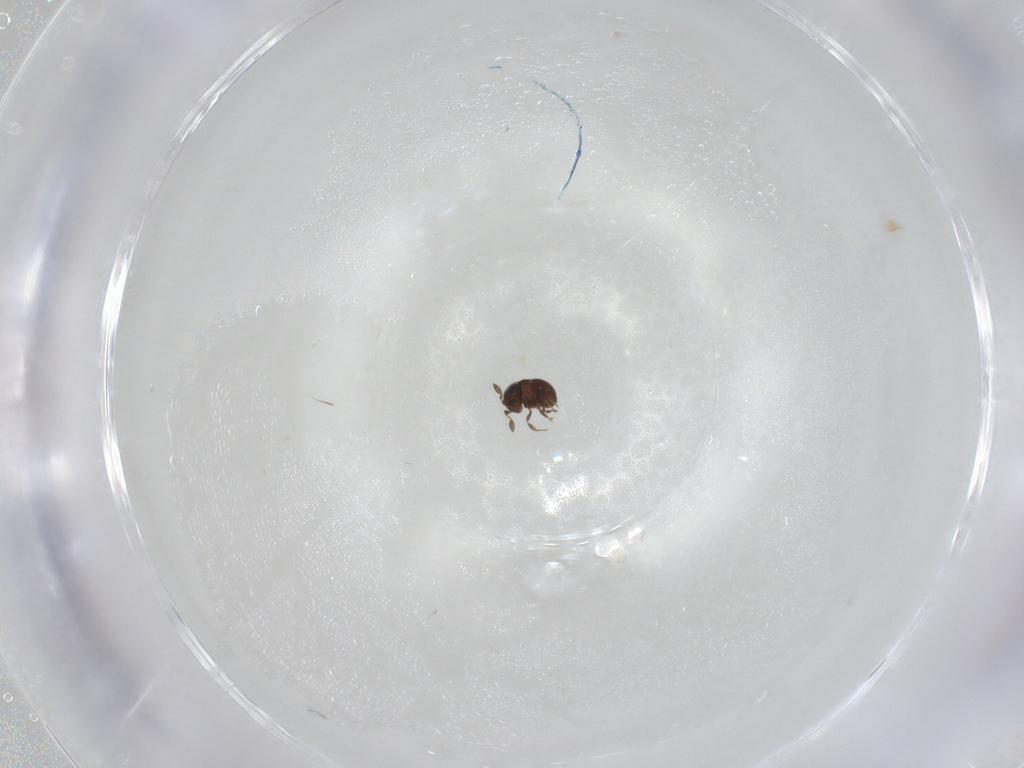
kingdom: Animalia
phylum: Arthropoda
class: Insecta
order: Hymenoptera
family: Scelionidae
